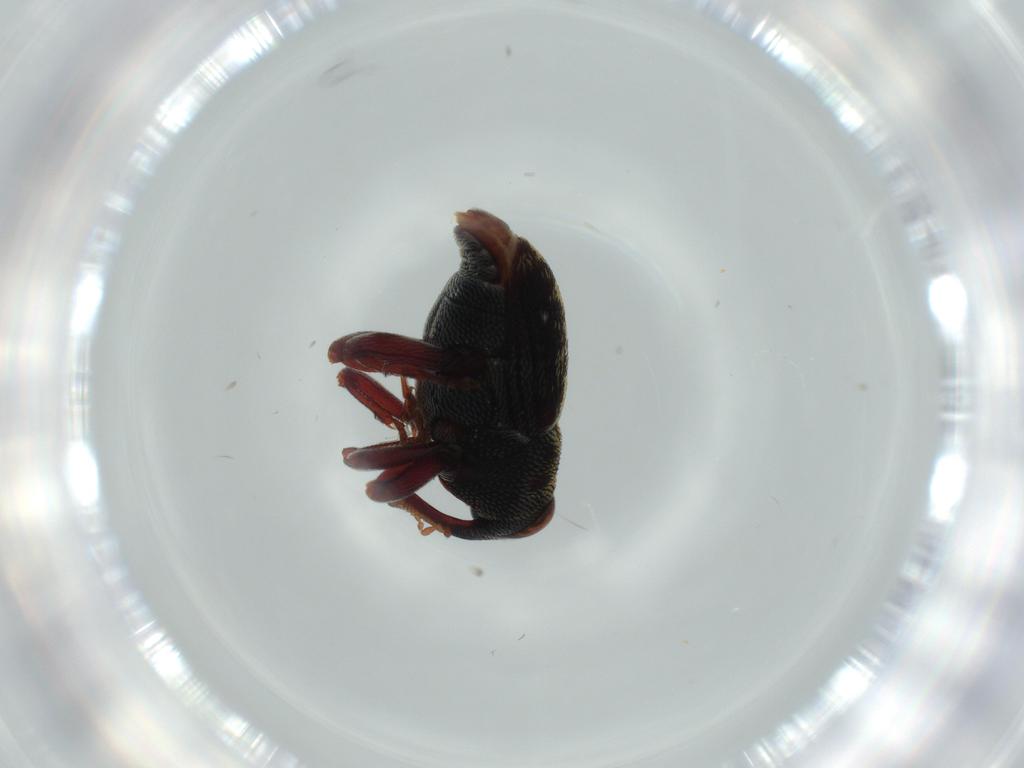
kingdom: Animalia
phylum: Arthropoda
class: Insecta
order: Coleoptera
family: Curculionidae
